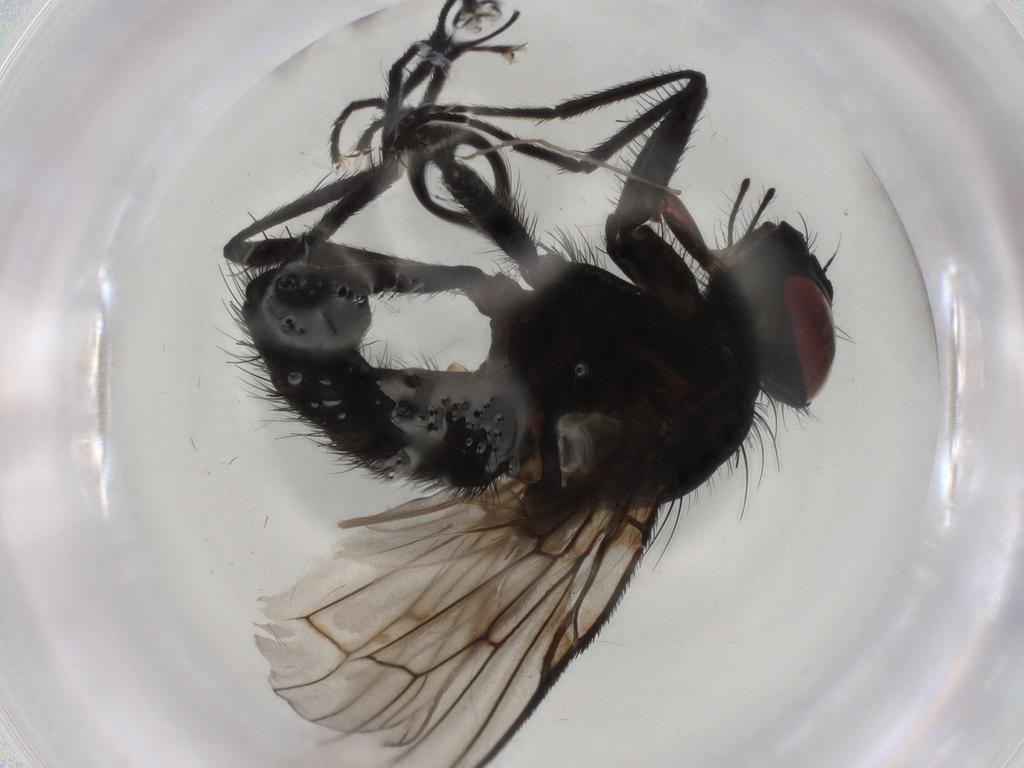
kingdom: Animalia
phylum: Arthropoda
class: Insecta
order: Diptera
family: Muscidae
